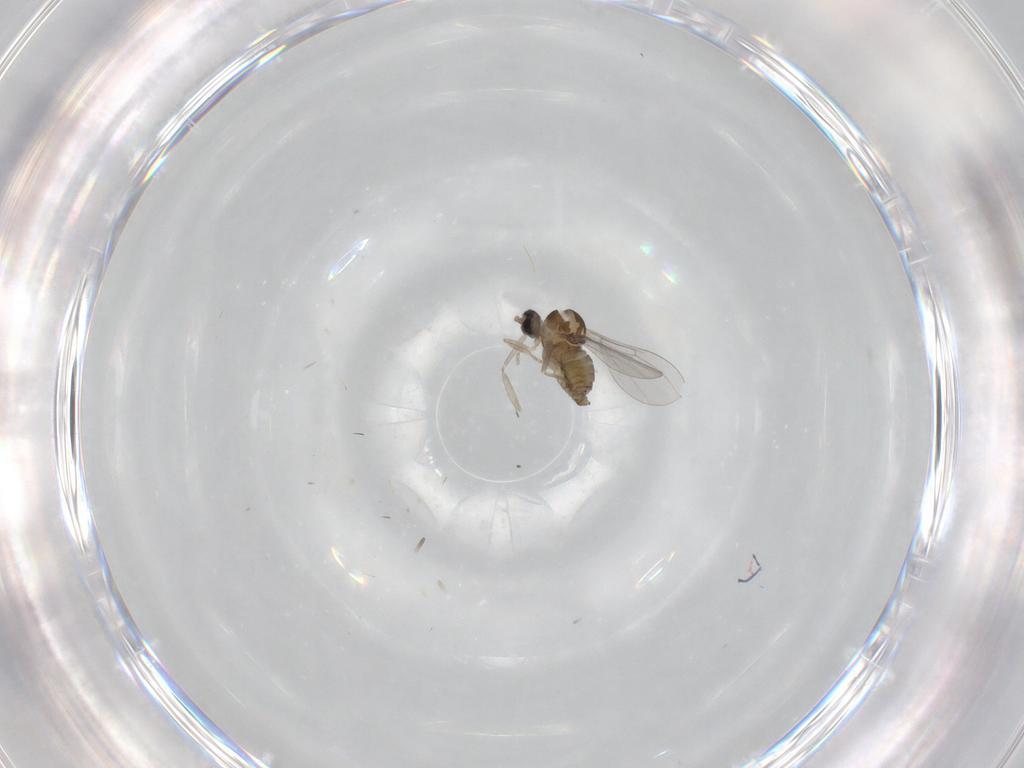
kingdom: Animalia
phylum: Arthropoda
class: Insecta
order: Diptera
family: Cecidomyiidae
